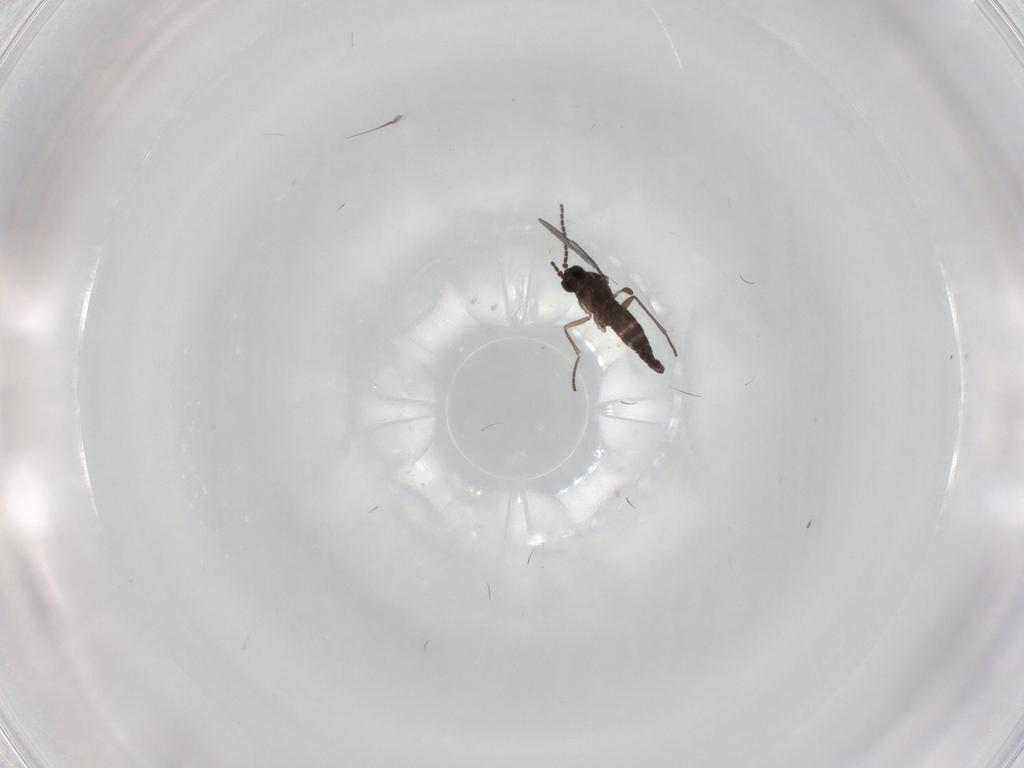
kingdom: Animalia
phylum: Arthropoda
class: Insecta
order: Diptera
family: Sciaridae
